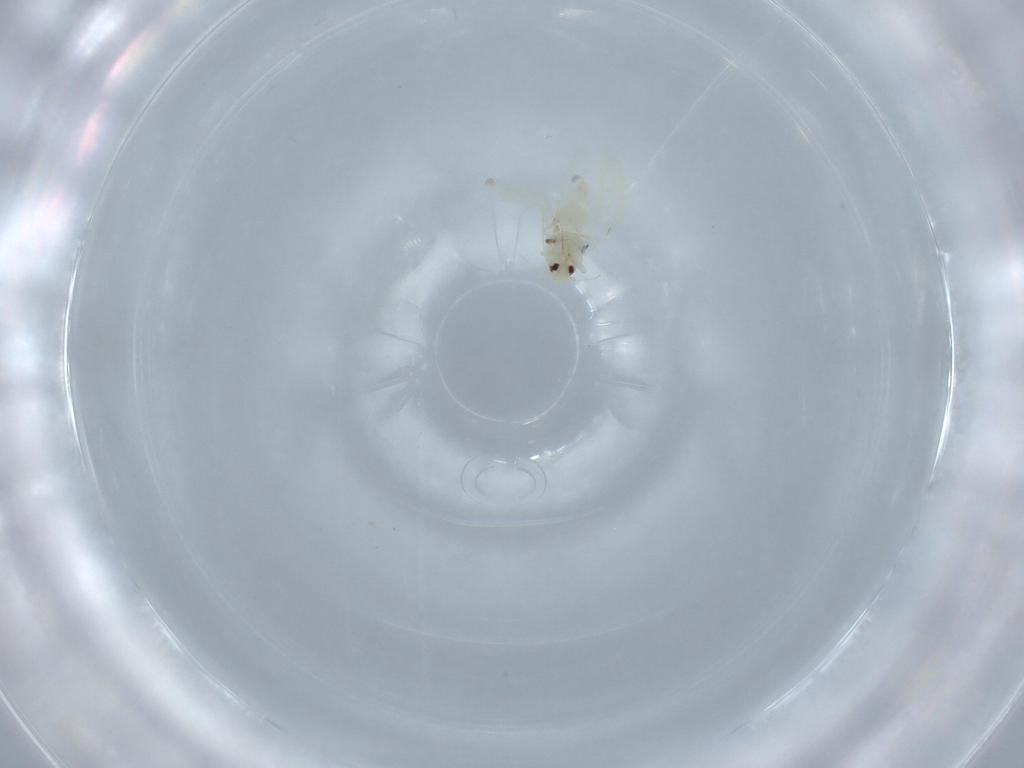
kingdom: Animalia
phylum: Arthropoda
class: Insecta
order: Hemiptera
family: Aleyrodidae
